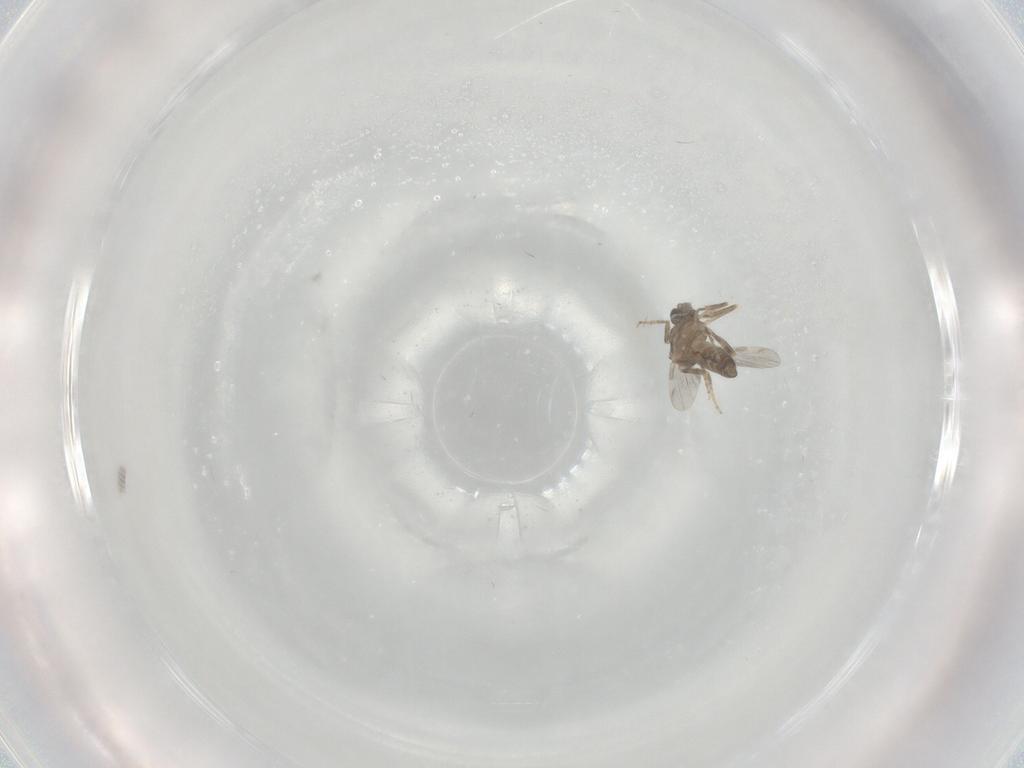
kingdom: Animalia
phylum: Arthropoda
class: Insecta
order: Diptera
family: Ceratopogonidae
